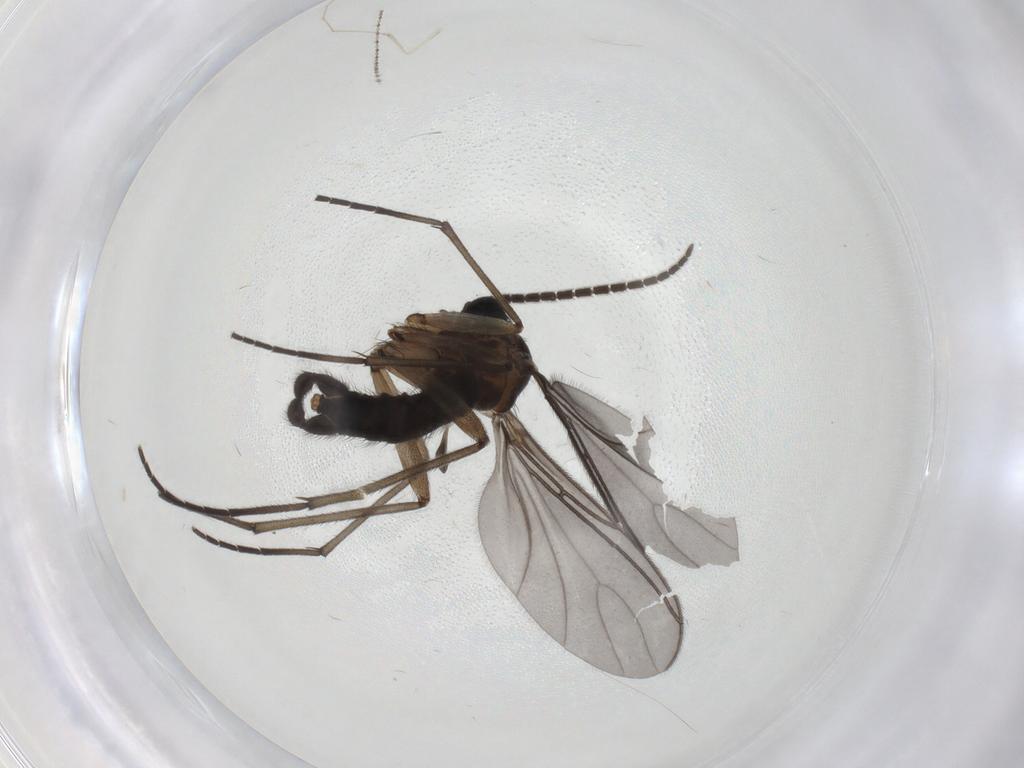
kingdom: Animalia
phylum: Arthropoda
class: Insecta
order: Diptera
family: Sciaridae
